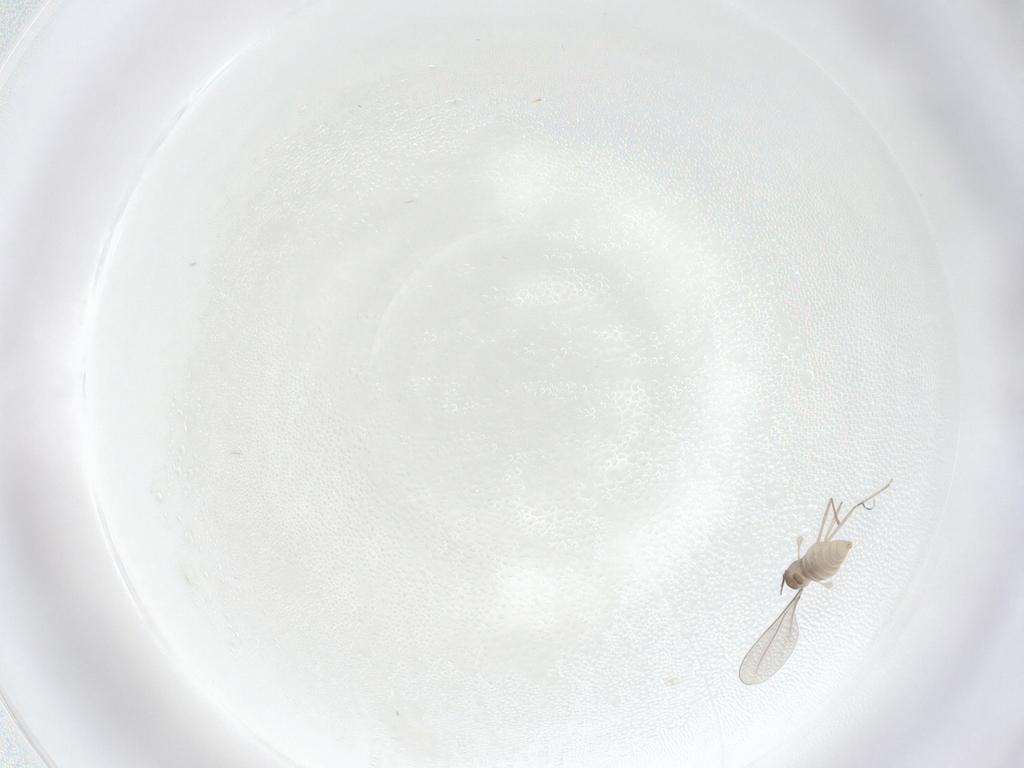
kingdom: Animalia
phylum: Arthropoda
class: Insecta
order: Diptera
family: Cecidomyiidae
